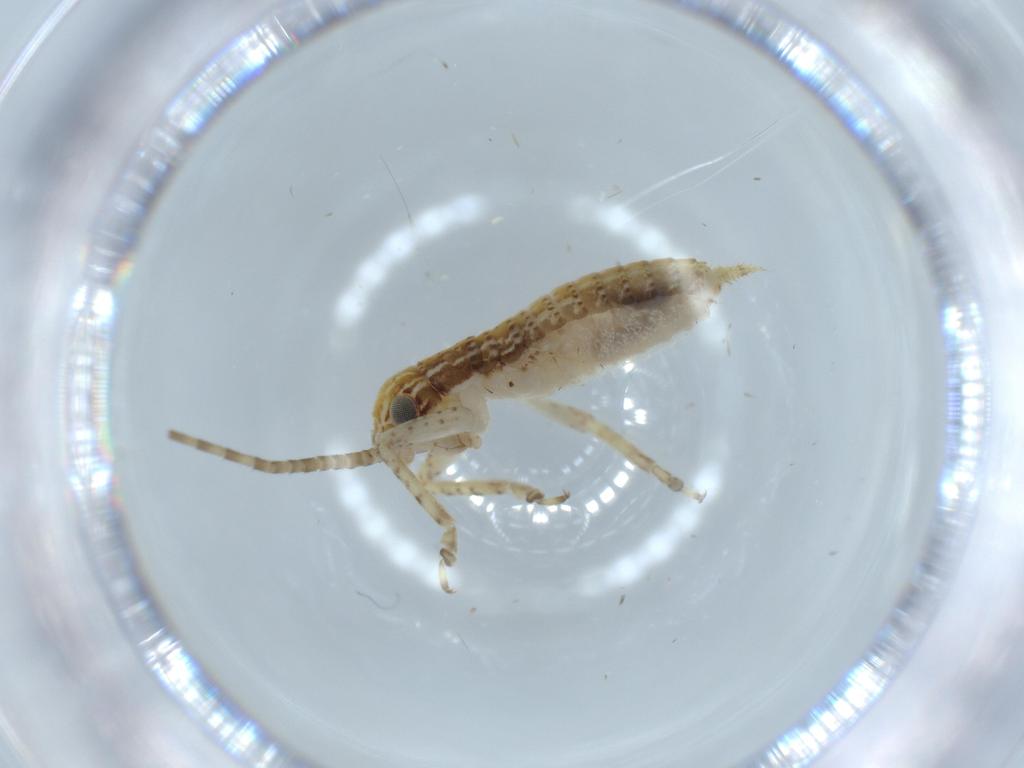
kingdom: Animalia
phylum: Arthropoda
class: Insecta
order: Orthoptera
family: Gryllidae
